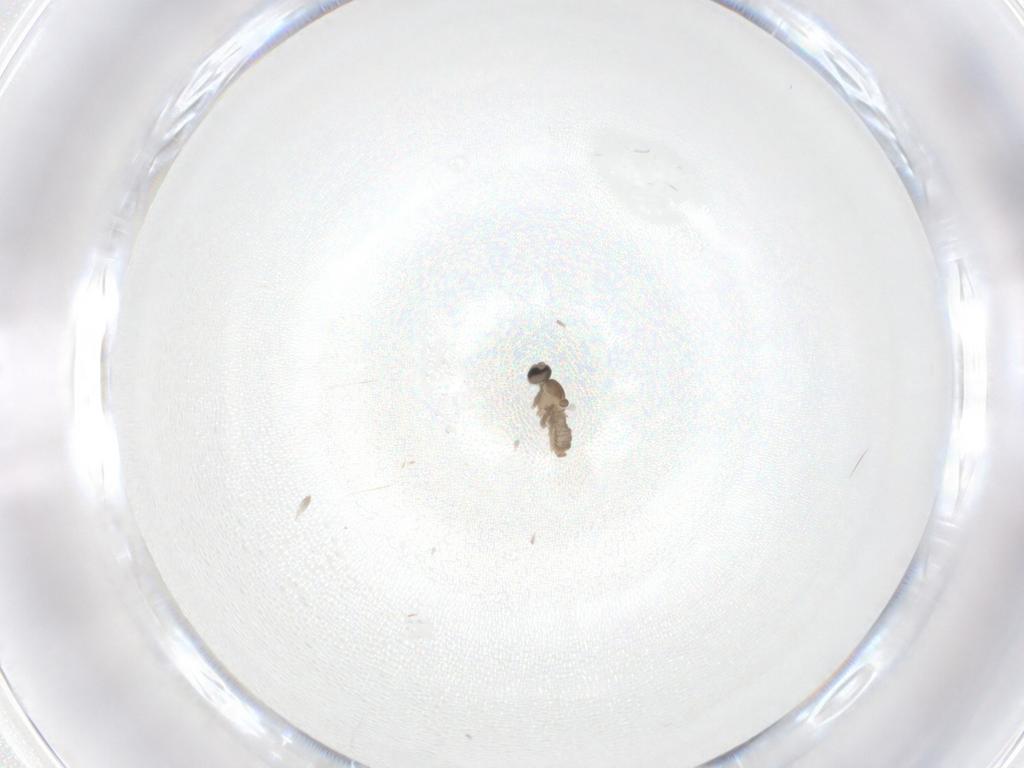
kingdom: Animalia
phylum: Arthropoda
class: Insecta
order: Diptera
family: Cecidomyiidae
